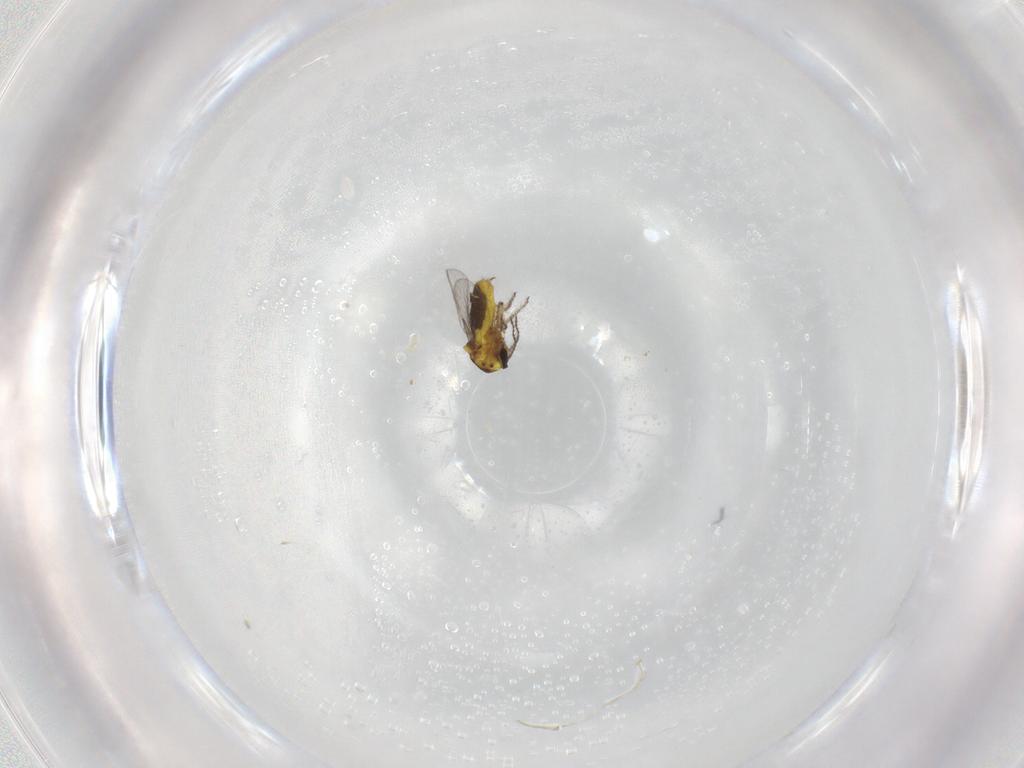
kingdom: Animalia
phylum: Arthropoda
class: Insecta
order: Diptera
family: Ceratopogonidae
